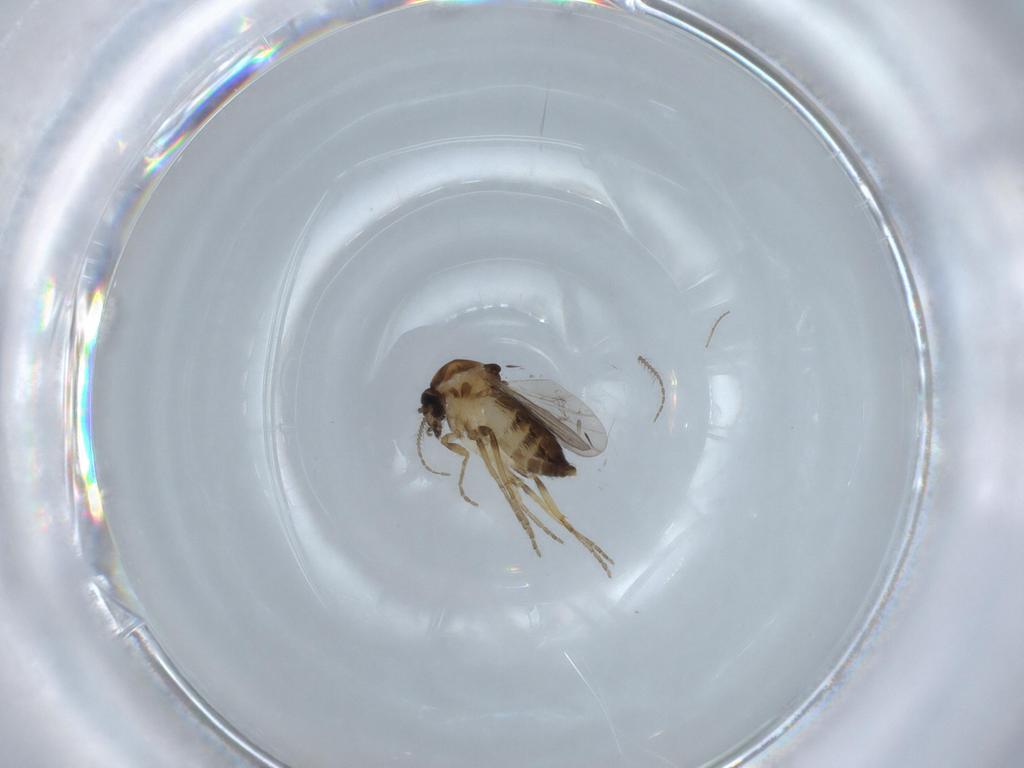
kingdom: Animalia
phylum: Arthropoda
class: Insecta
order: Diptera
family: Ceratopogonidae
